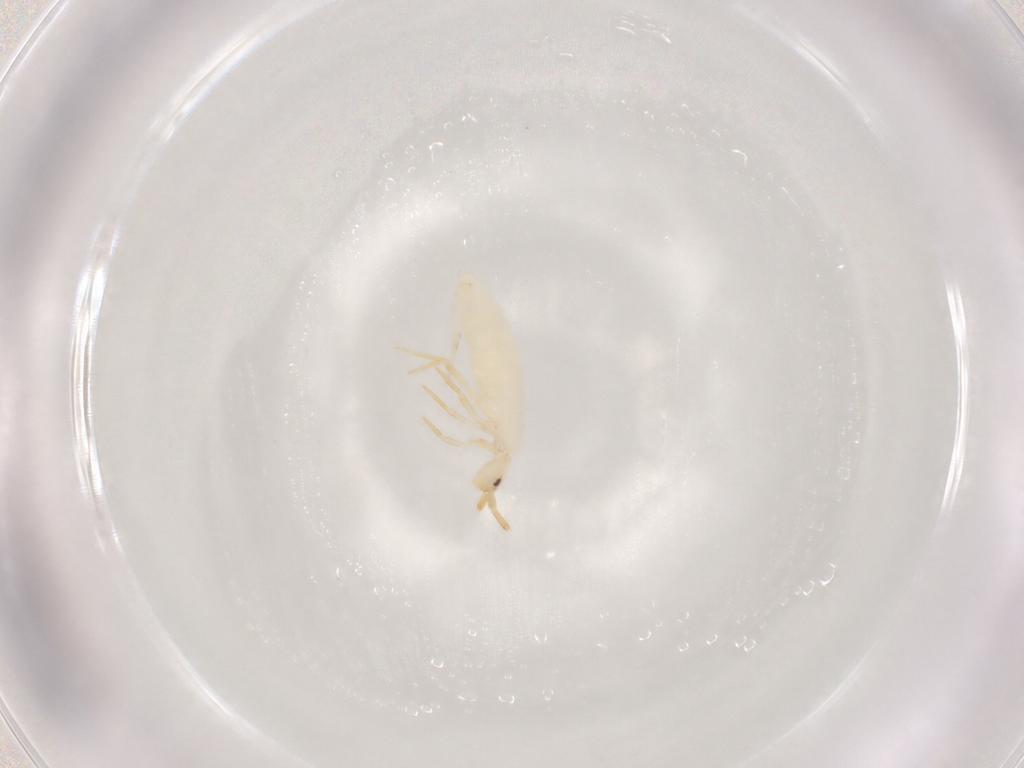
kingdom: Animalia
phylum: Arthropoda
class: Collembola
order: Entomobryomorpha
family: Entomobryidae
